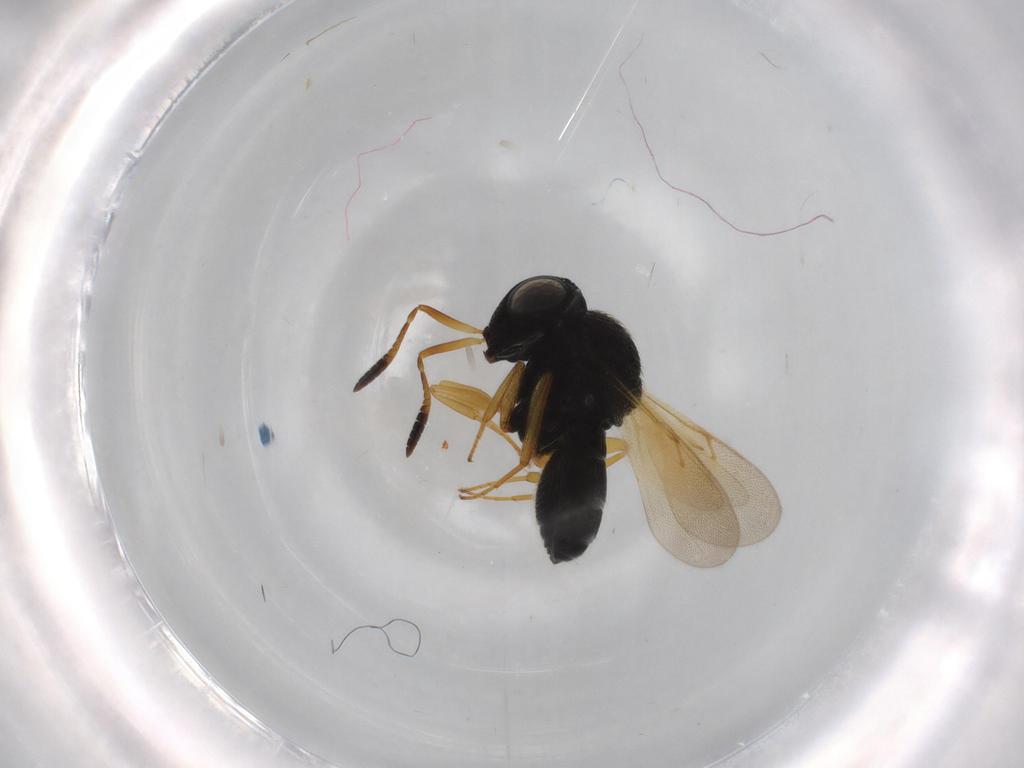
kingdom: Animalia
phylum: Arthropoda
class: Insecta
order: Hymenoptera
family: Scelionidae
